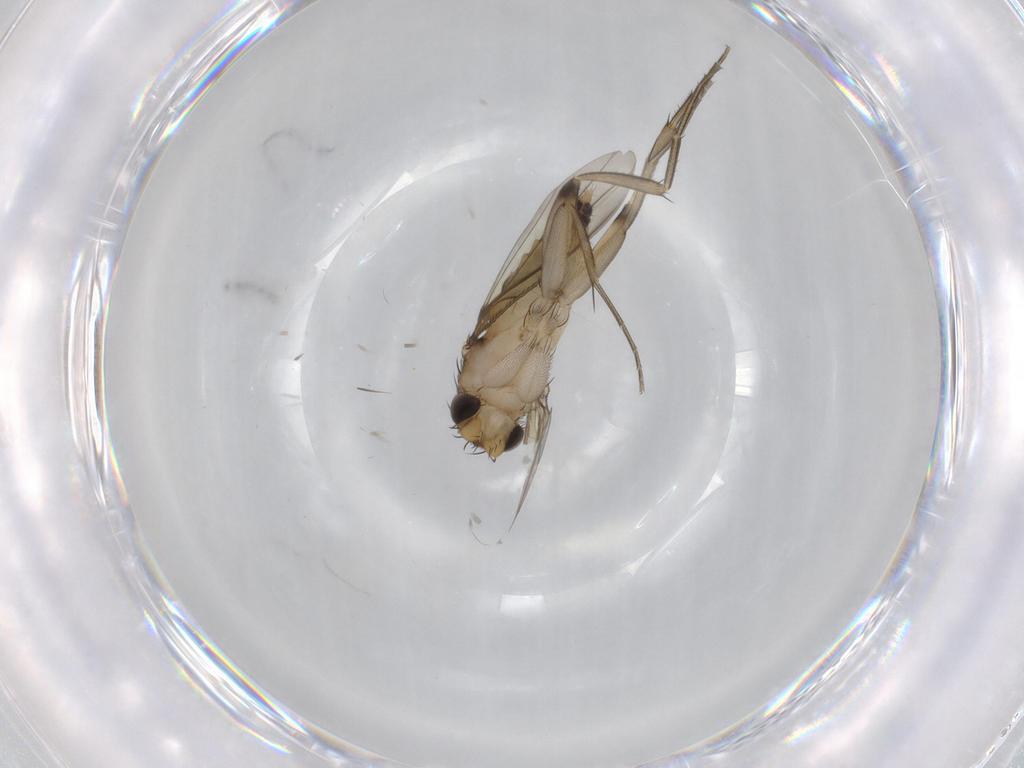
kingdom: Animalia
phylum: Arthropoda
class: Insecta
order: Diptera
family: Phoridae
